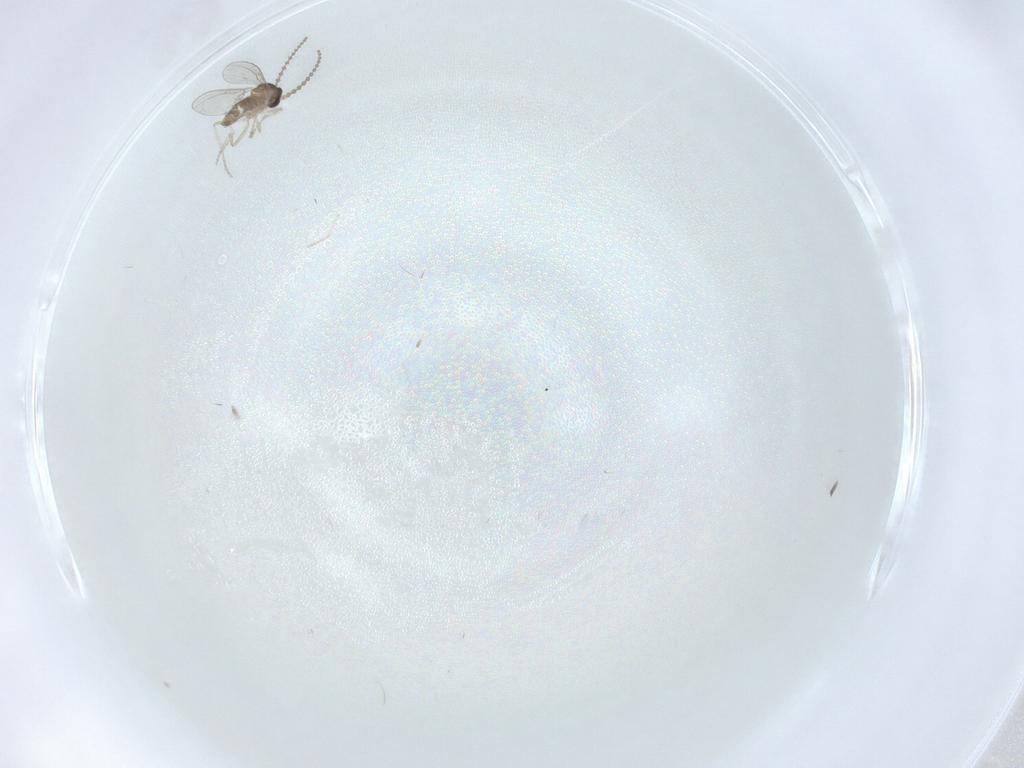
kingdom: Animalia
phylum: Arthropoda
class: Insecta
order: Diptera
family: Cecidomyiidae
